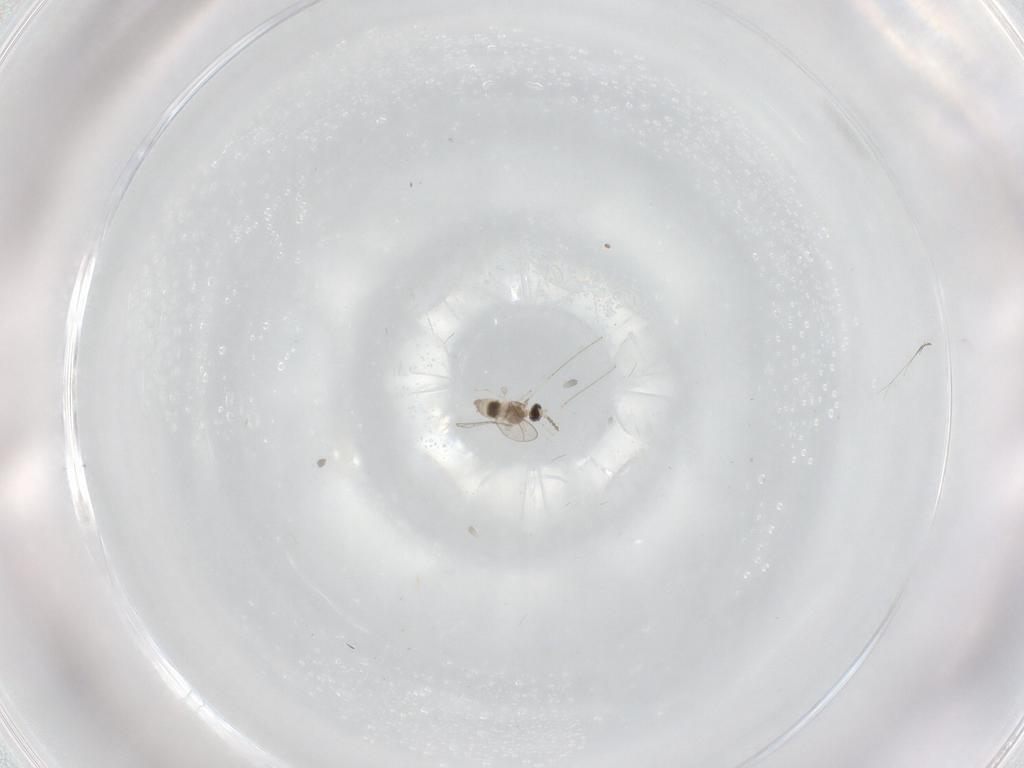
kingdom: Animalia
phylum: Arthropoda
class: Insecta
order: Diptera
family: Cecidomyiidae
